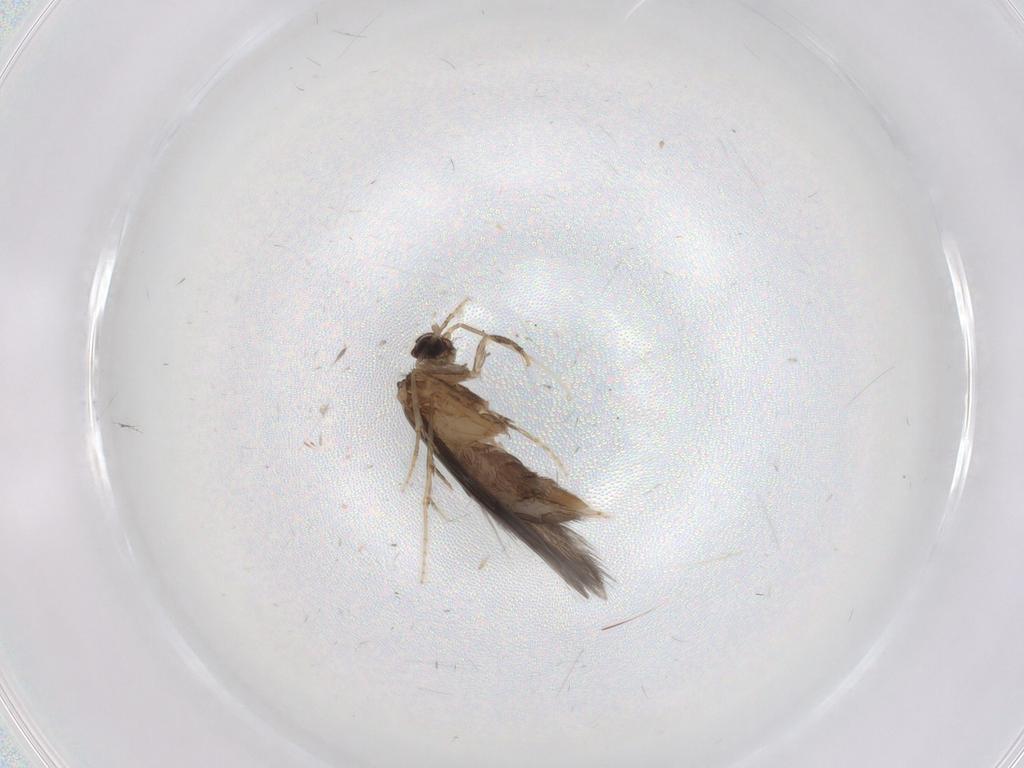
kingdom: Animalia
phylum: Arthropoda
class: Insecta
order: Trichoptera
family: Hydroptilidae
